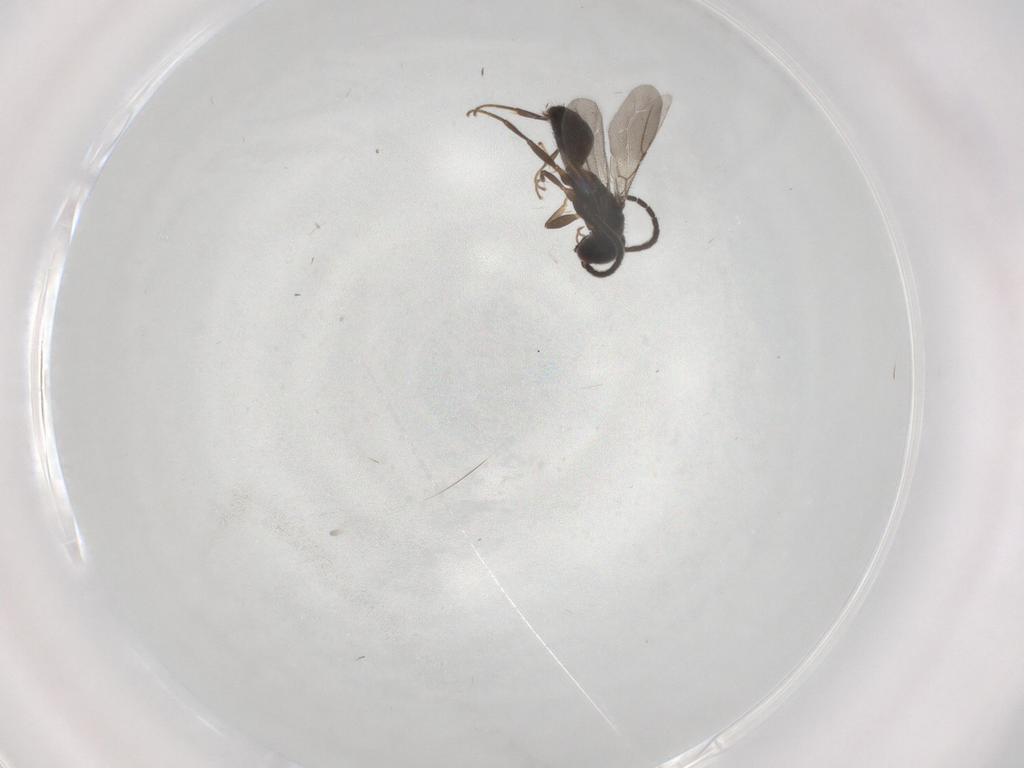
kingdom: Animalia
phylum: Arthropoda
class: Insecta
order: Hymenoptera
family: Bethylidae
